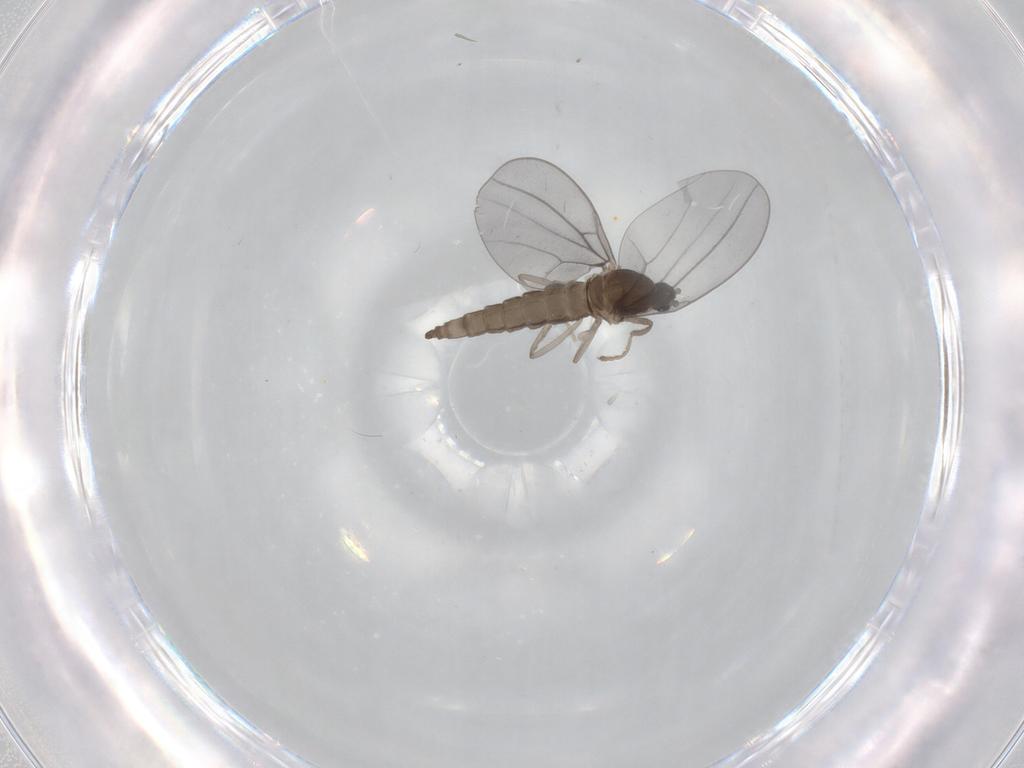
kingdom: Animalia
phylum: Arthropoda
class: Insecta
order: Diptera
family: Cecidomyiidae
